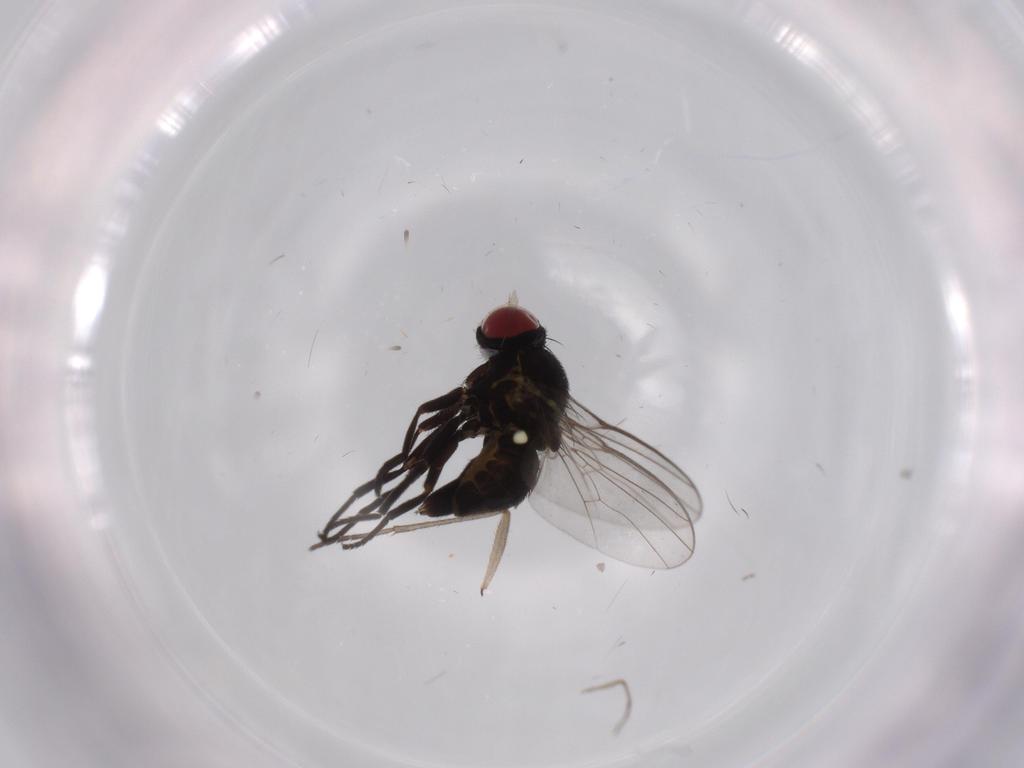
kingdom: Animalia
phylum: Arthropoda
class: Insecta
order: Diptera
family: Sciaridae
